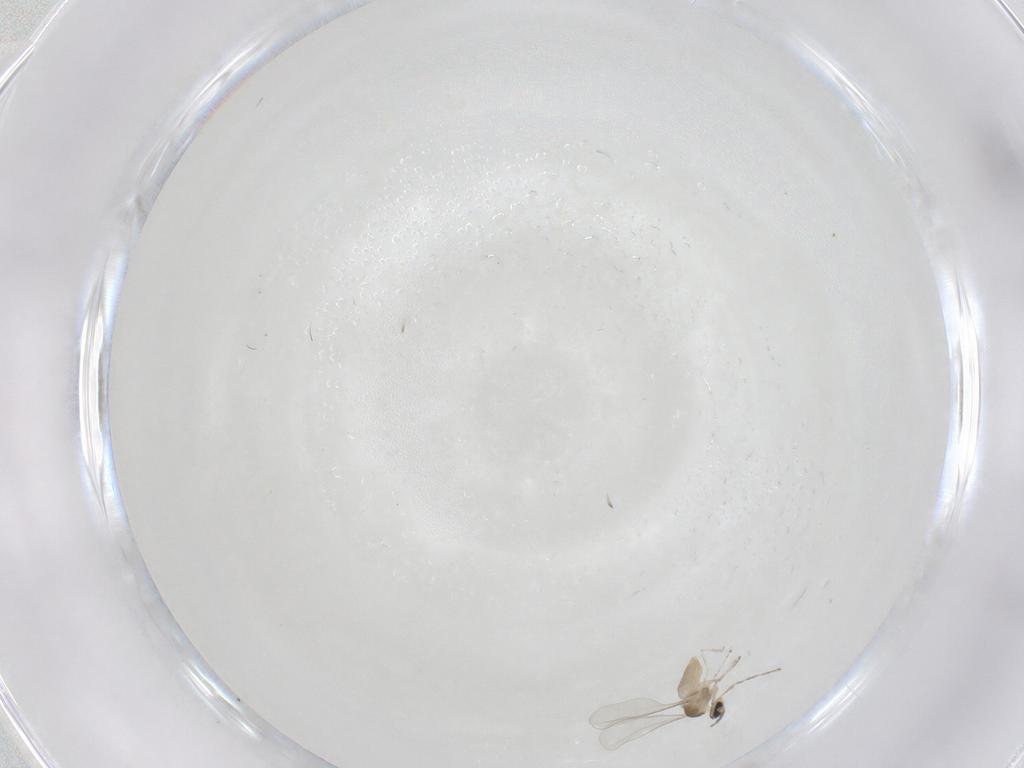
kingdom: Animalia
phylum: Arthropoda
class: Insecta
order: Diptera
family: Cecidomyiidae
